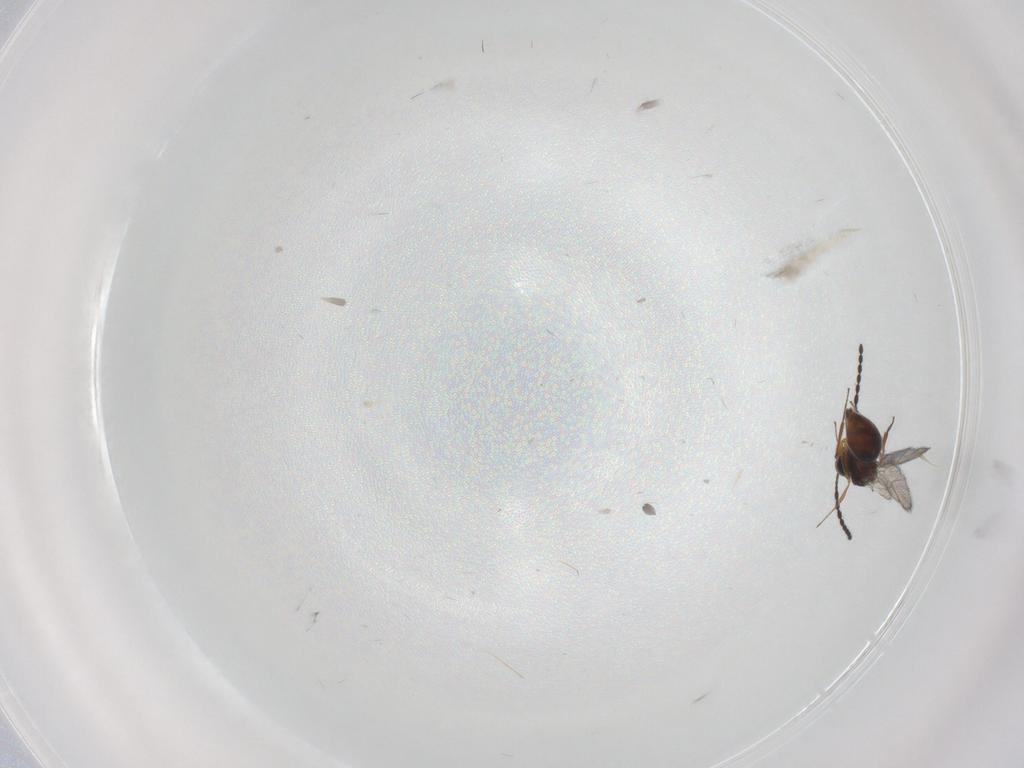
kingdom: Animalia
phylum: Arthropoda
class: Insecta
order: Hymenoptera
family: Figitidae
